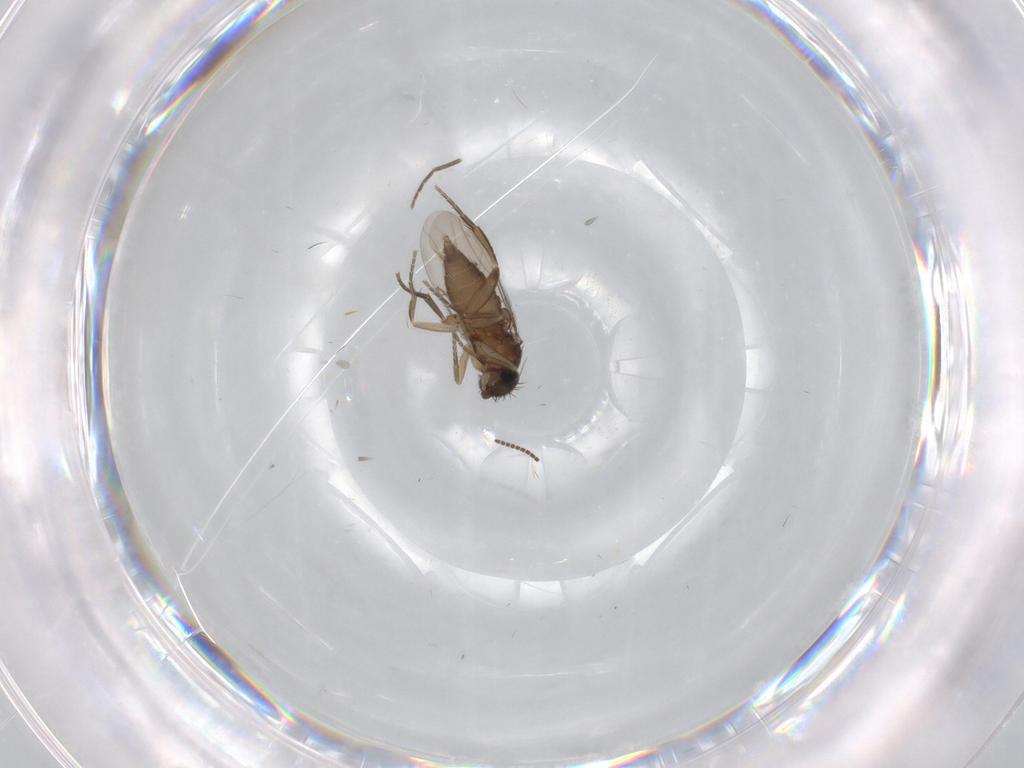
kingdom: Animalia
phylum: Arthropoda
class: Insecta
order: Diptera
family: Phoridae
